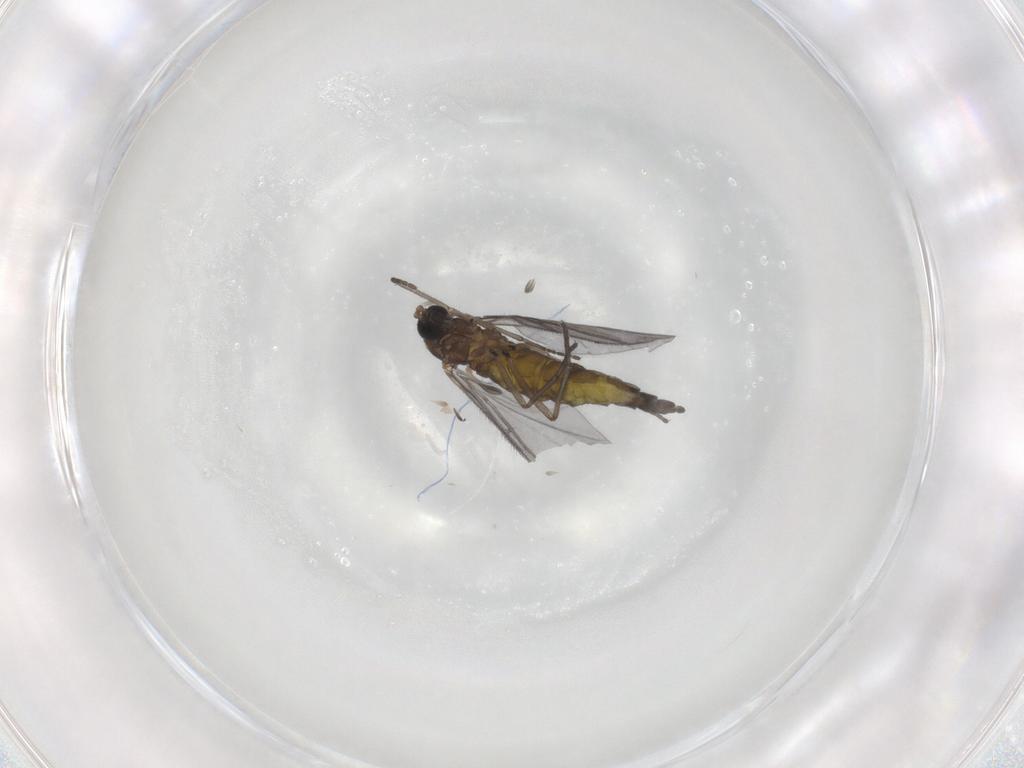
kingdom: Animalia
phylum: Arthropoda
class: Insecta
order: Diptera
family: Sciaridae
